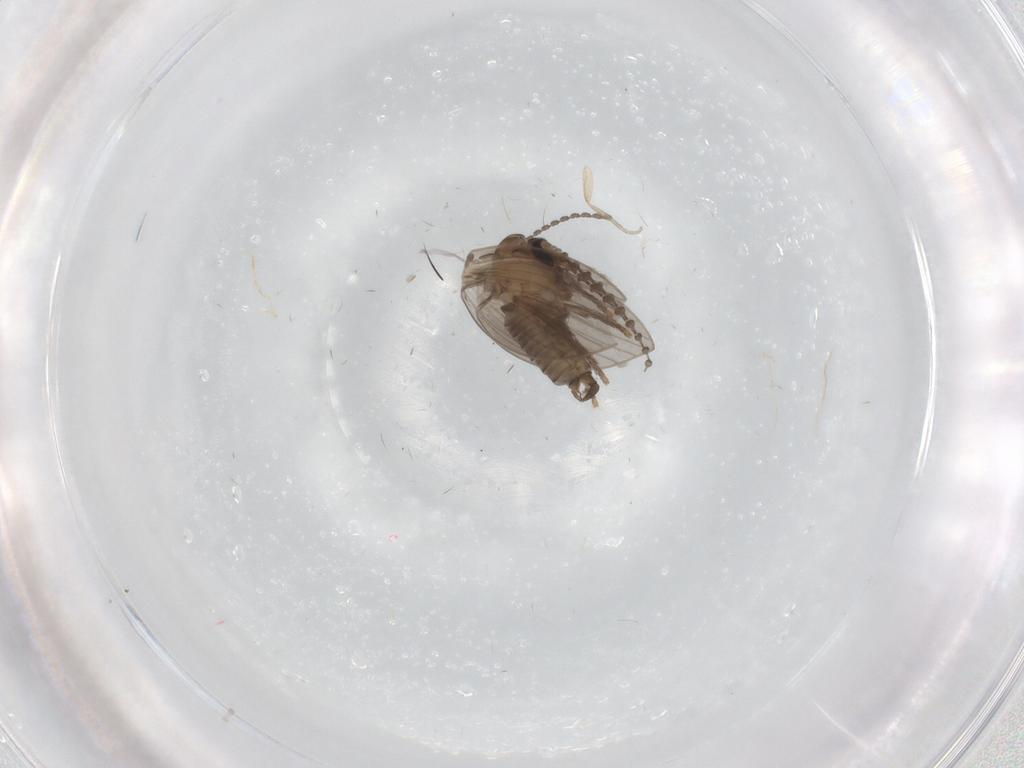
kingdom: Animalia
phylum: Arthropoda
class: Insecta
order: Diptera
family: Psychodidae
